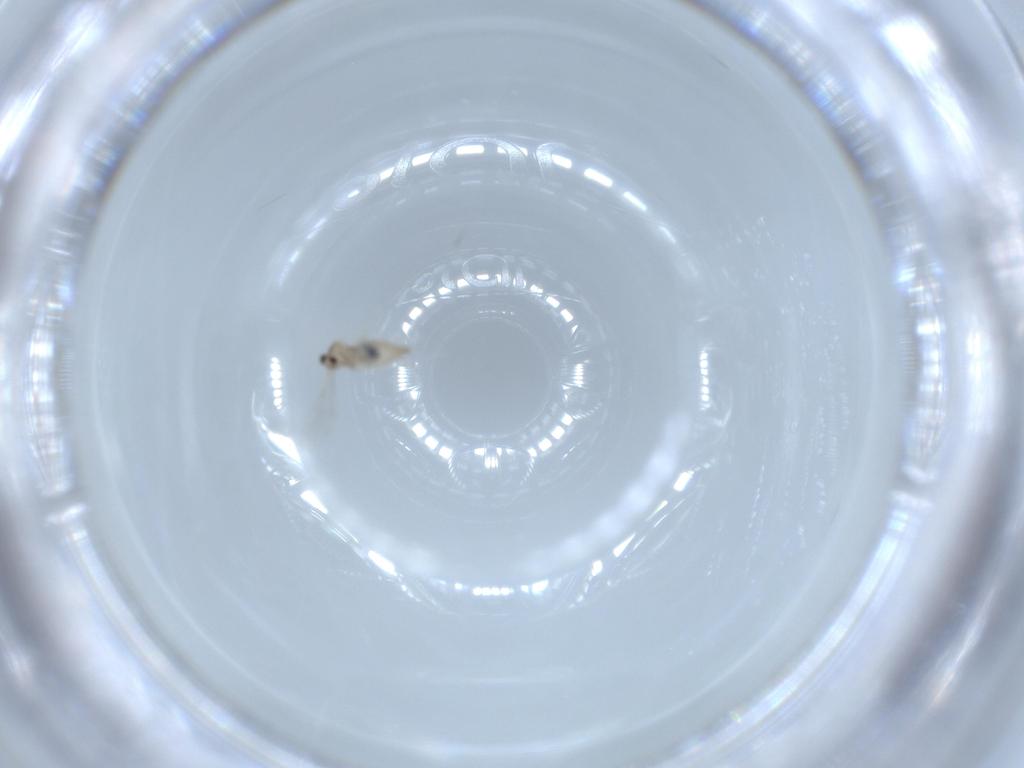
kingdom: Animalia
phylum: Arthropoda
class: Insecta
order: Diptera
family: Cecidomyiidae
